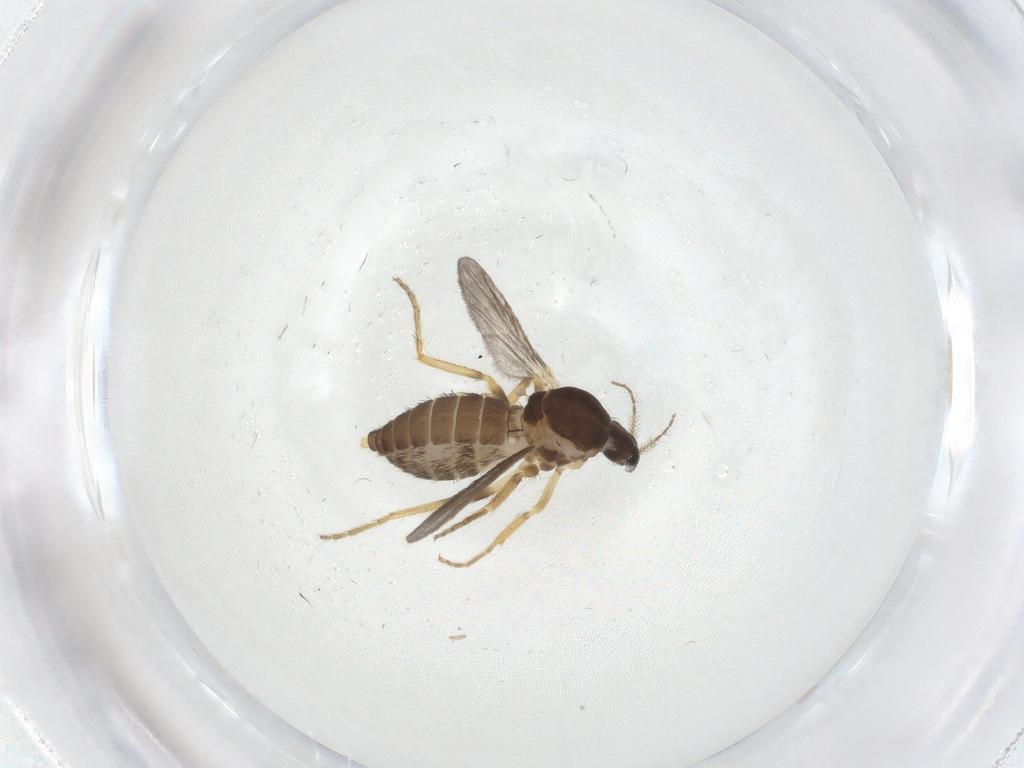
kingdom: Animalia
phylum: Arthropoda
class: Insecta
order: Diptera
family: Ceratopogonidae
